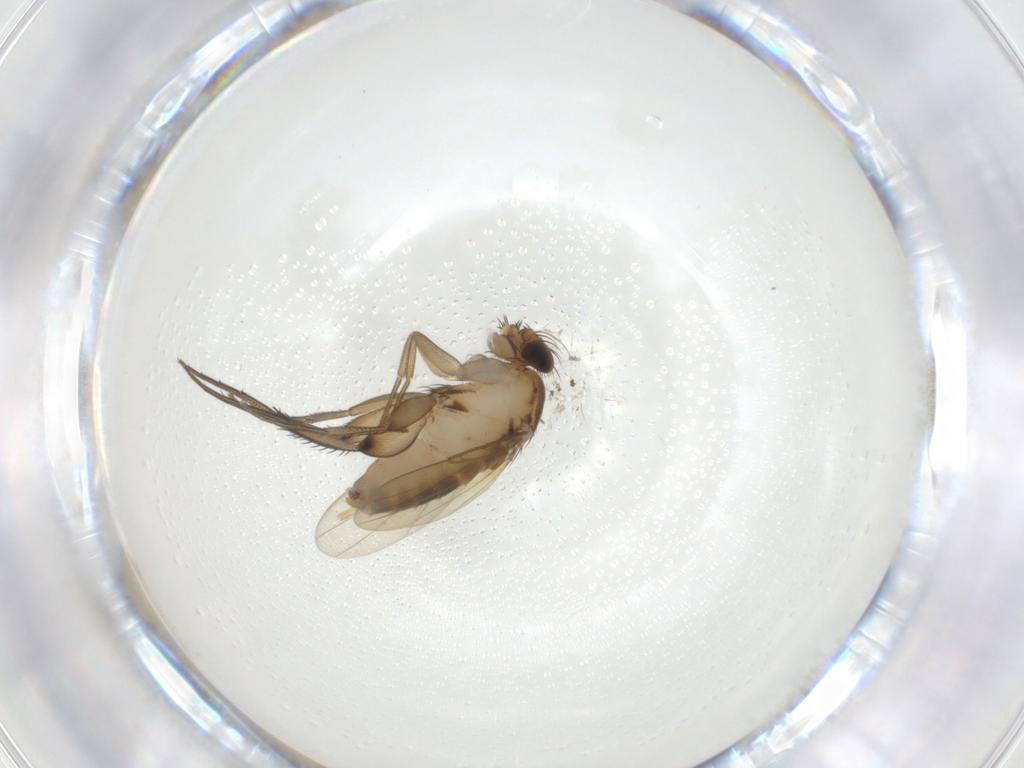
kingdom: Animalia
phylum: Arthropoda
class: Insecta
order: Diptera
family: Phoridae
